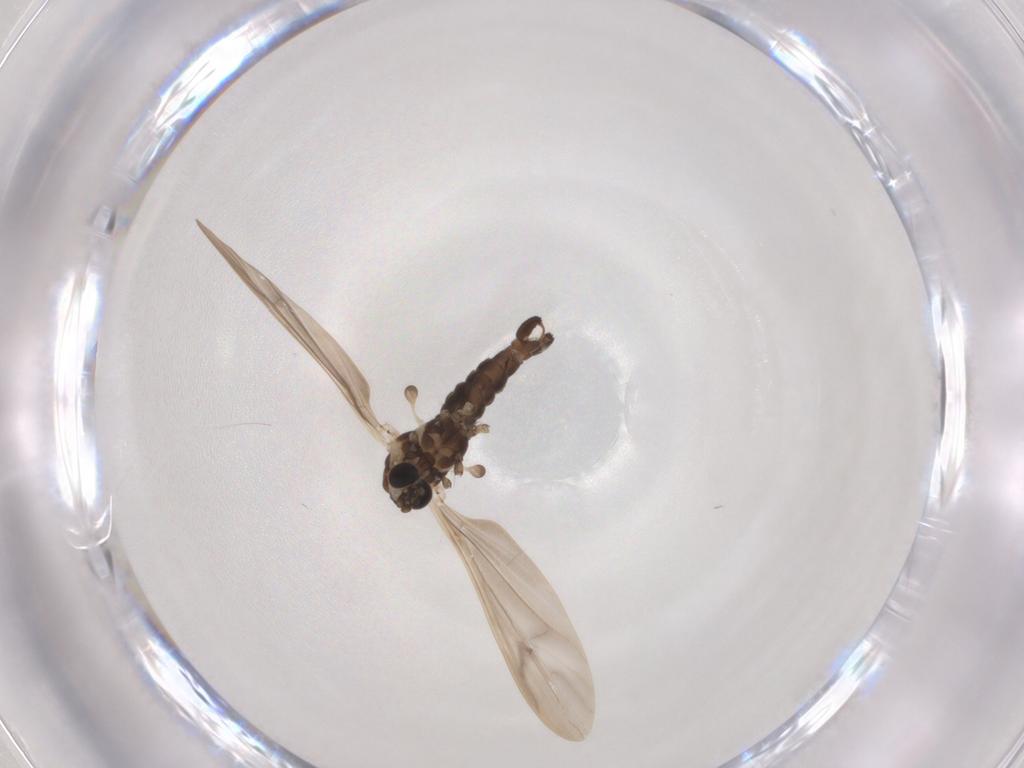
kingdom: Animalia
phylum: Arthropoda
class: Insecta
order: Diptera
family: Limoniidae
